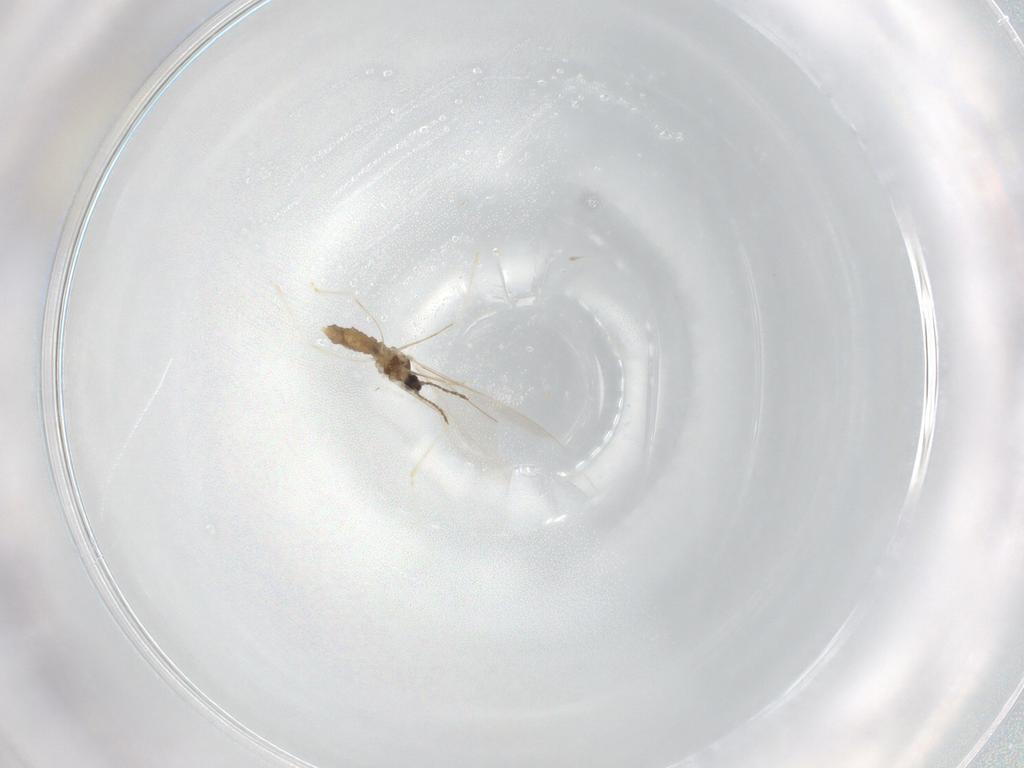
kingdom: Animalia
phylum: Arthropoda
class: Insecta
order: Diptera
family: Cecidomyiidae
